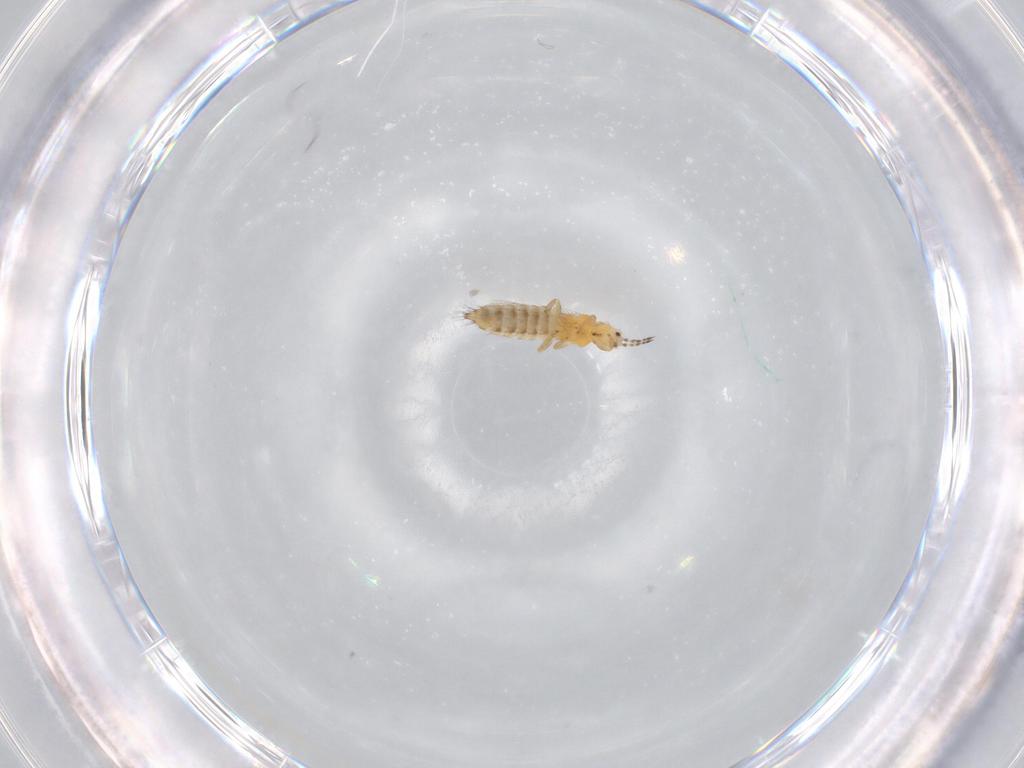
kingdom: Animalia
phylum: Arthropoda
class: Insecta
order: Thysanoptera
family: Thripidae
